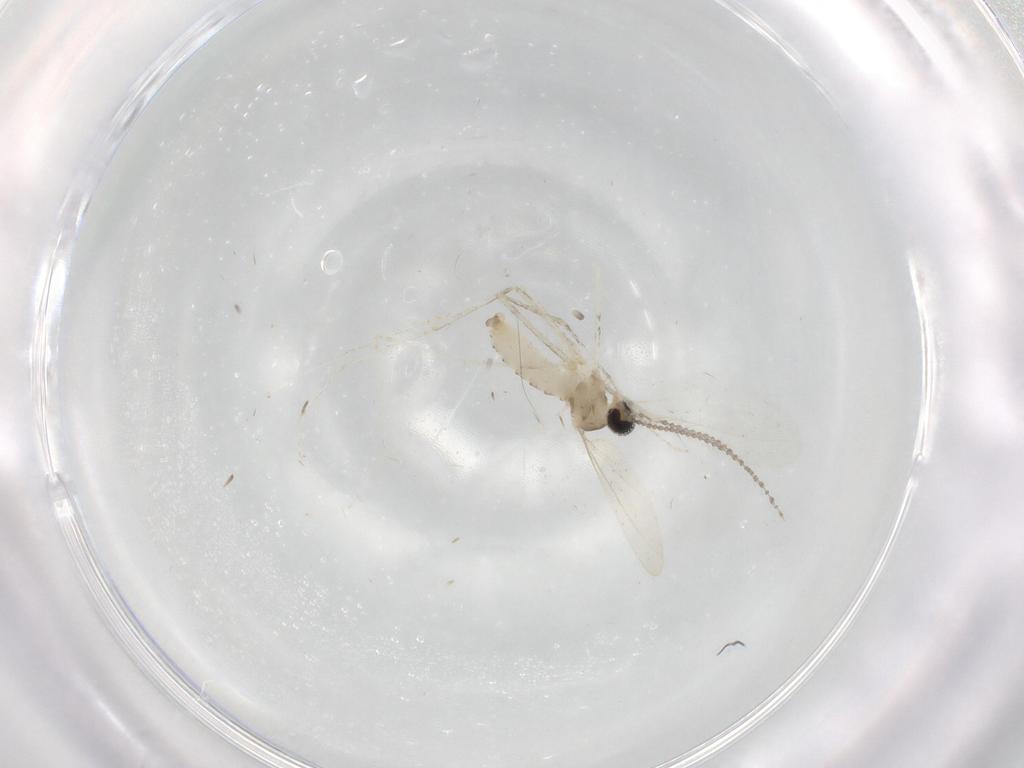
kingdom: Animalia
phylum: Arthropoda
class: Insecta
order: Diptera
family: Cecidomyiidae
